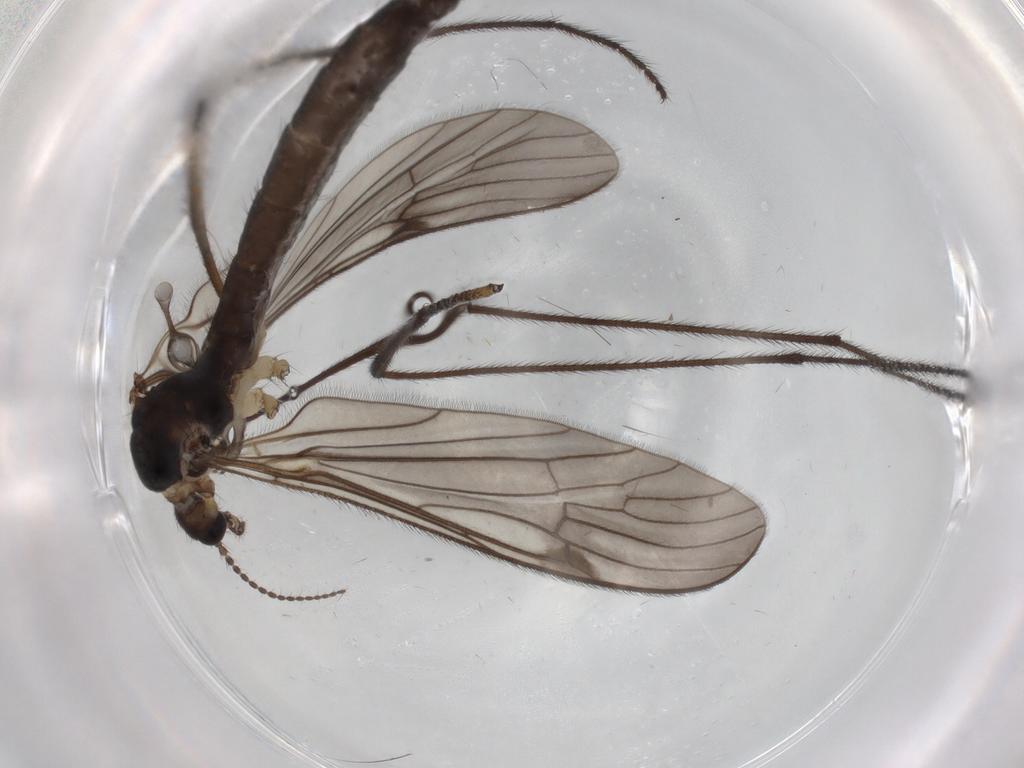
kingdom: Animalia
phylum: Arthropoda
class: Insecta
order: Diptera
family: Limoniidae
